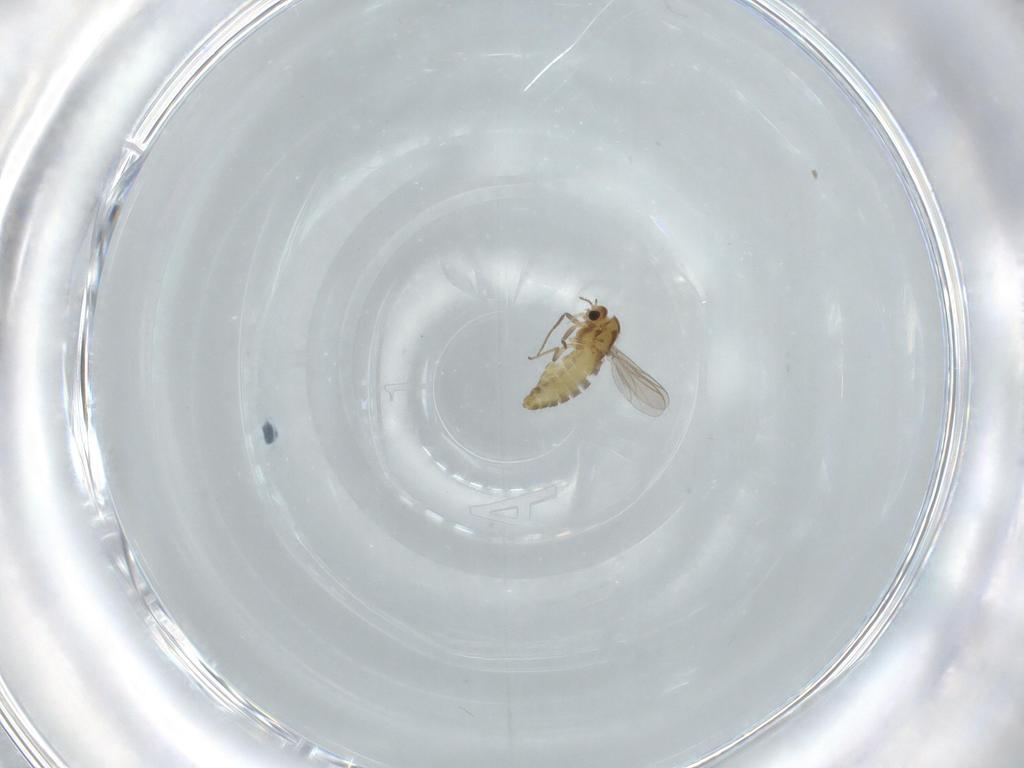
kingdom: Animalia
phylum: Arthropoda
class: Insecta
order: Diptera
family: Chironomidae
